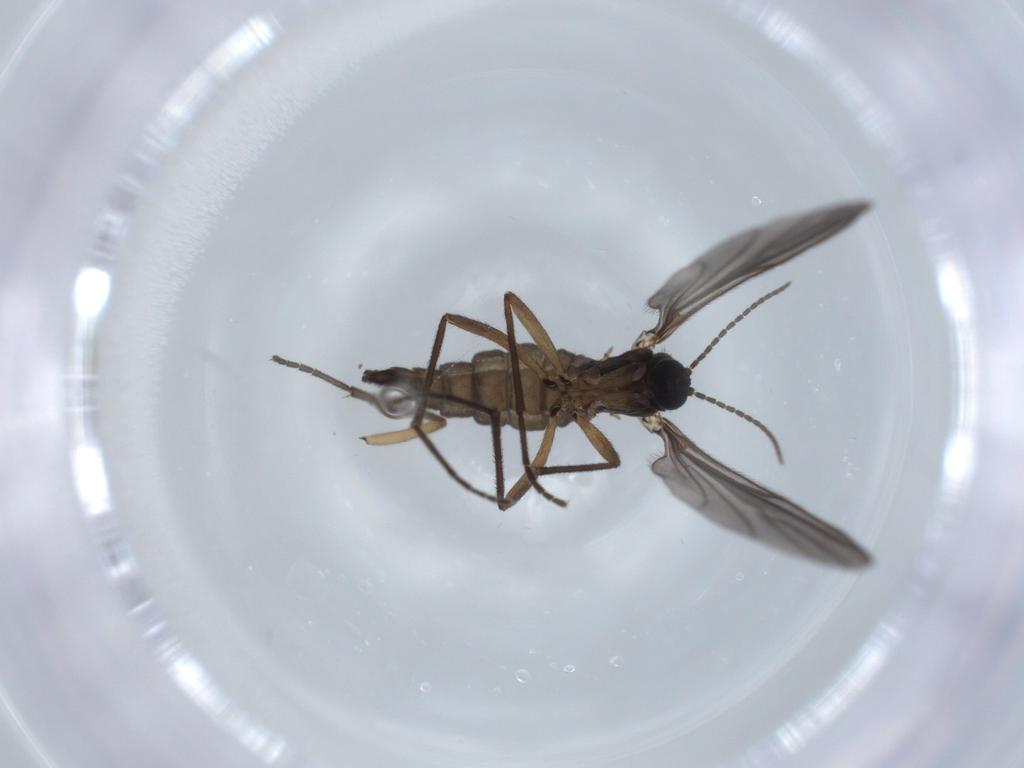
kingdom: Animalia
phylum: Arthropoda
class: Insecta
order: Diptera
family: Sciaridae
